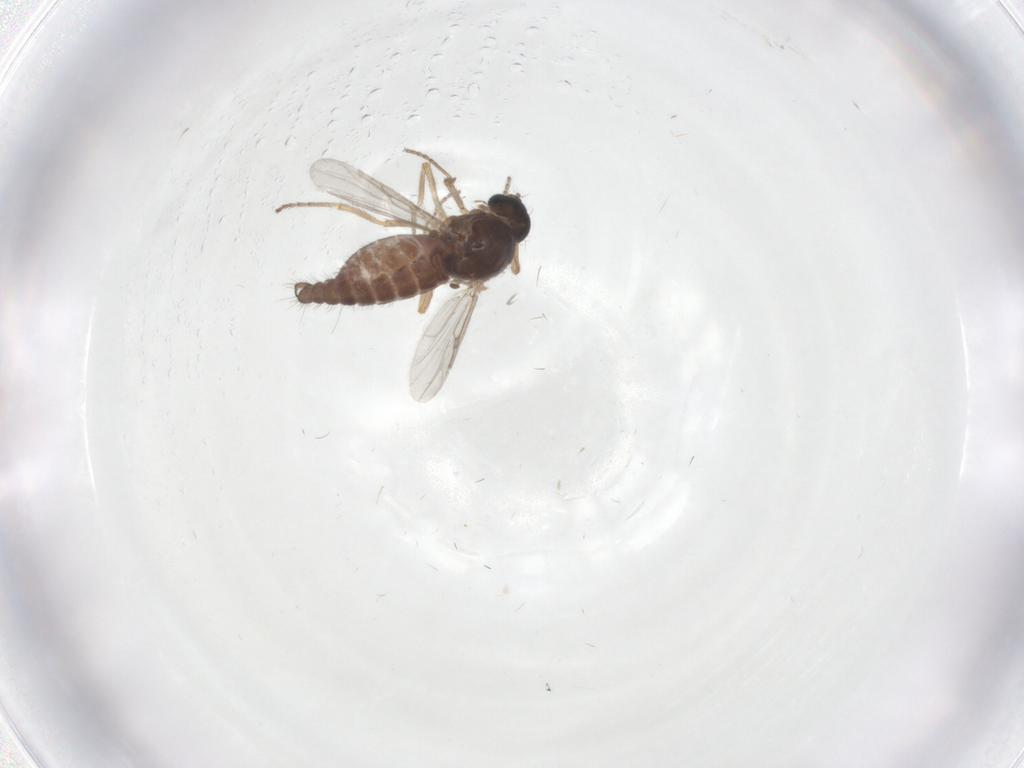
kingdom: Animalia
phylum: Arthropoda
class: Insecta
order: Diptera
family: Ceratopogonidae
